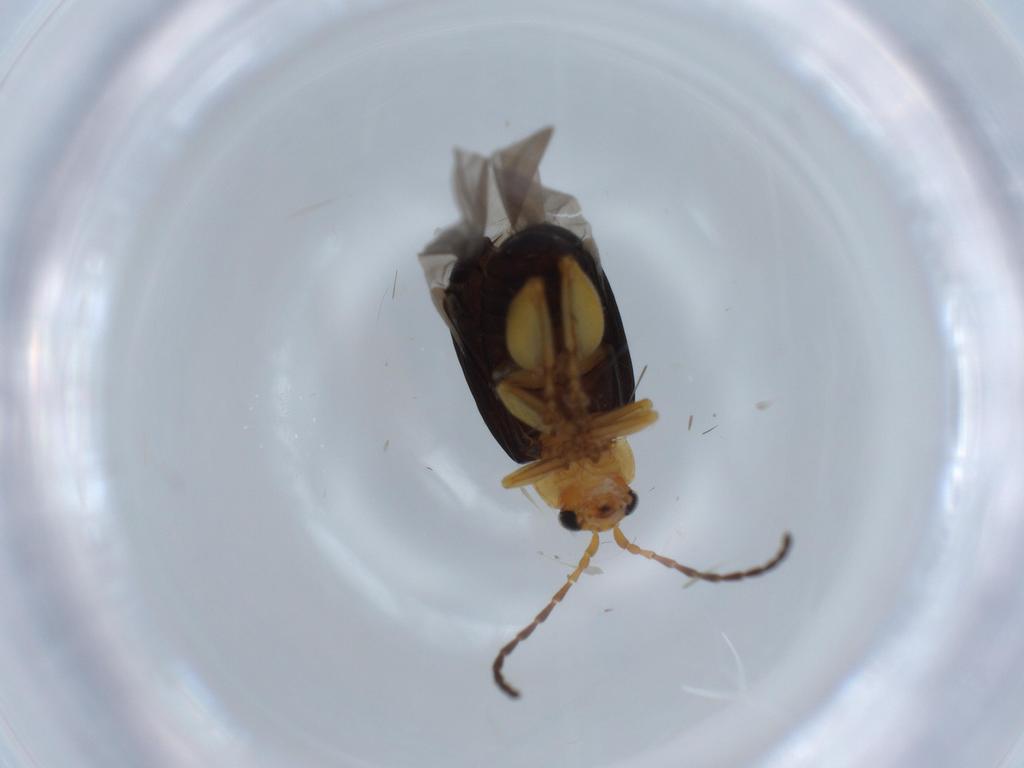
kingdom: Animalia
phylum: Arthropoda
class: Insecta
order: Coleoptera
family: Chrysomelidae
